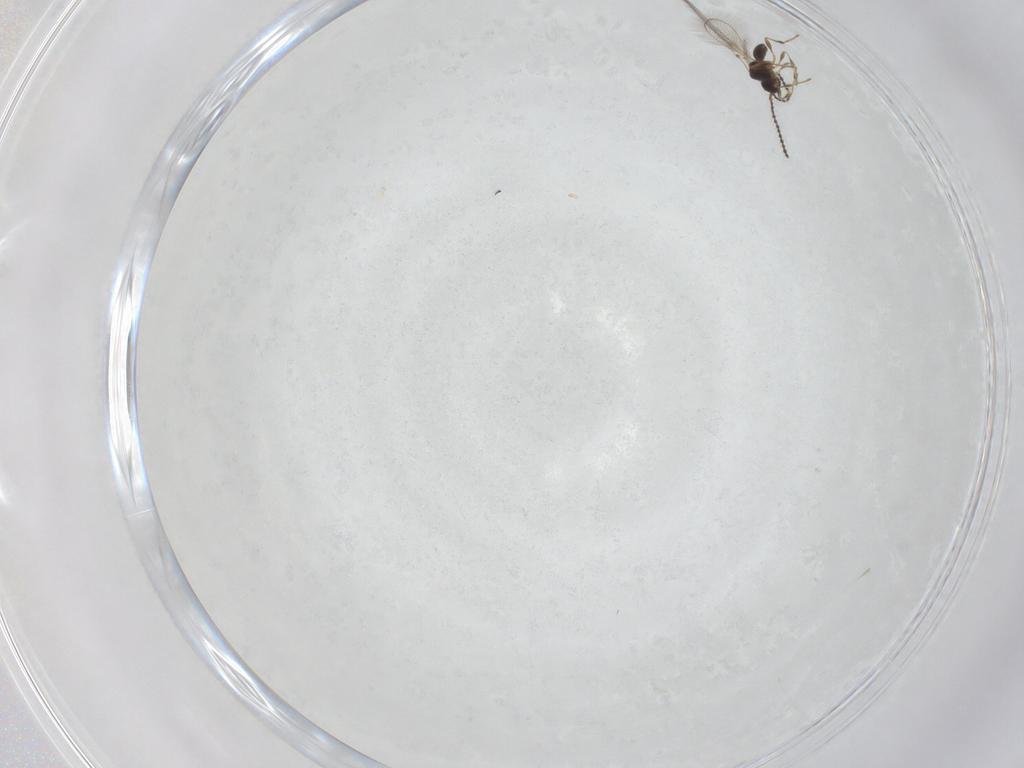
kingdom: Animalia
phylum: Arthropoda
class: Insecta
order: Hymenoptera
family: Diapriidae
